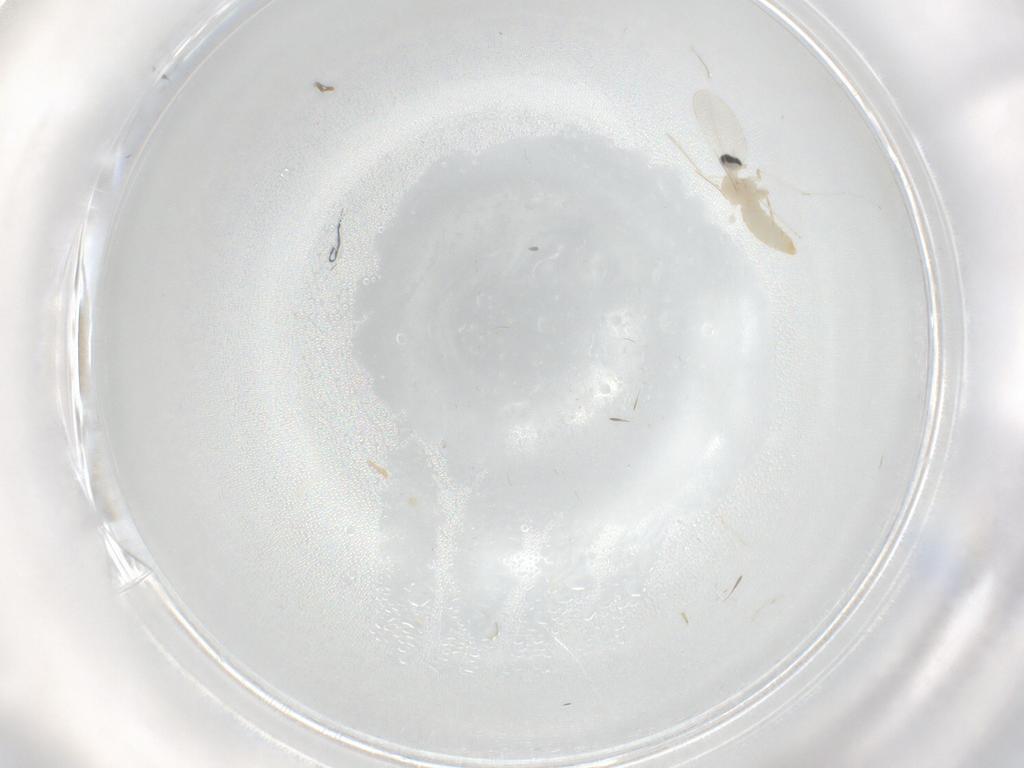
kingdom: Animalia
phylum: Arthropoda
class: Insecta
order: Diptera
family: Cecidomyiidae
